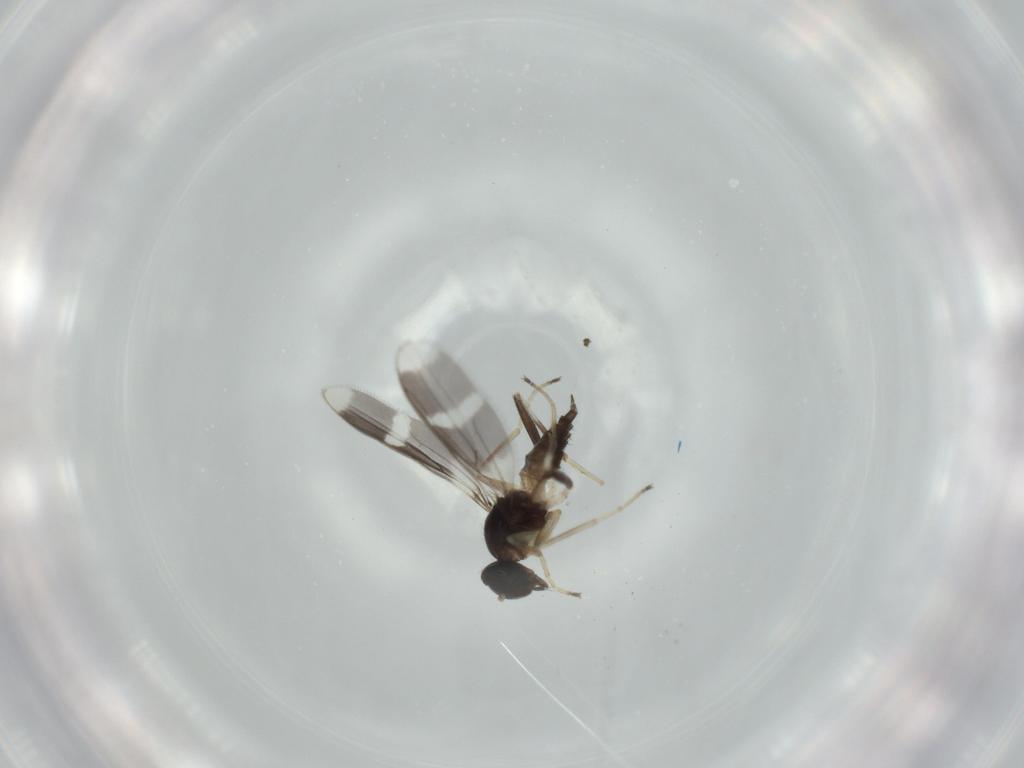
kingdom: Animalia
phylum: Arthropoda
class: Insecta
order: Diptera
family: Hybotidae
